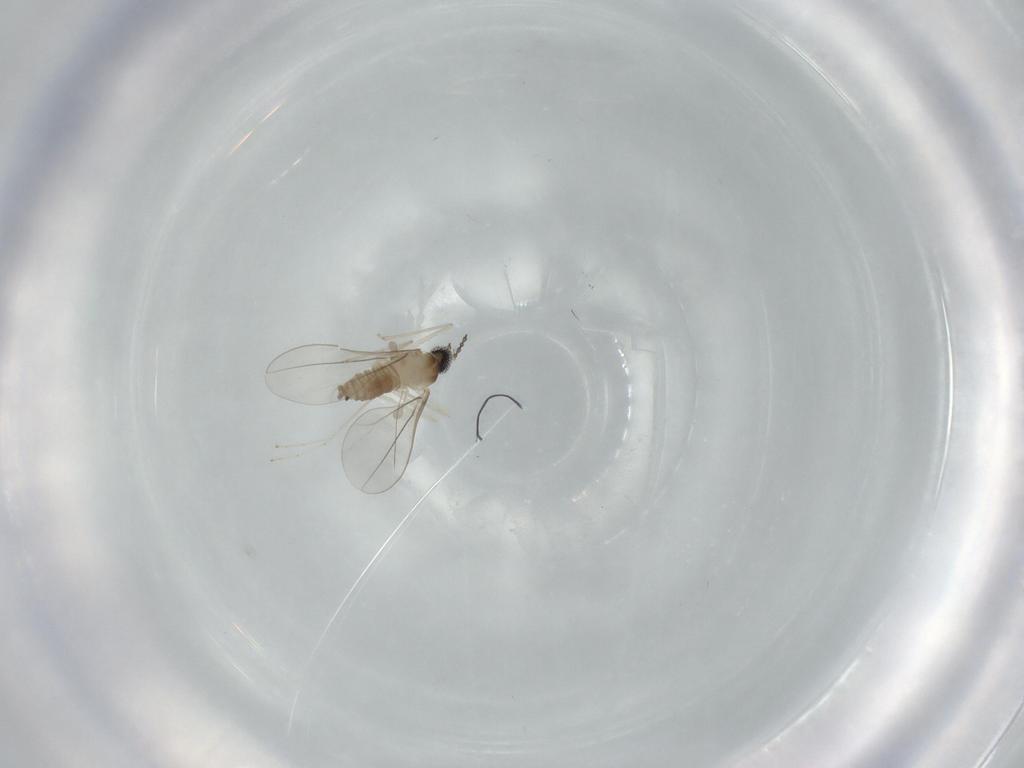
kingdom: Animalia
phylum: Arthropoda
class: Insecta
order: Diptera
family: Cecidomyiidae
